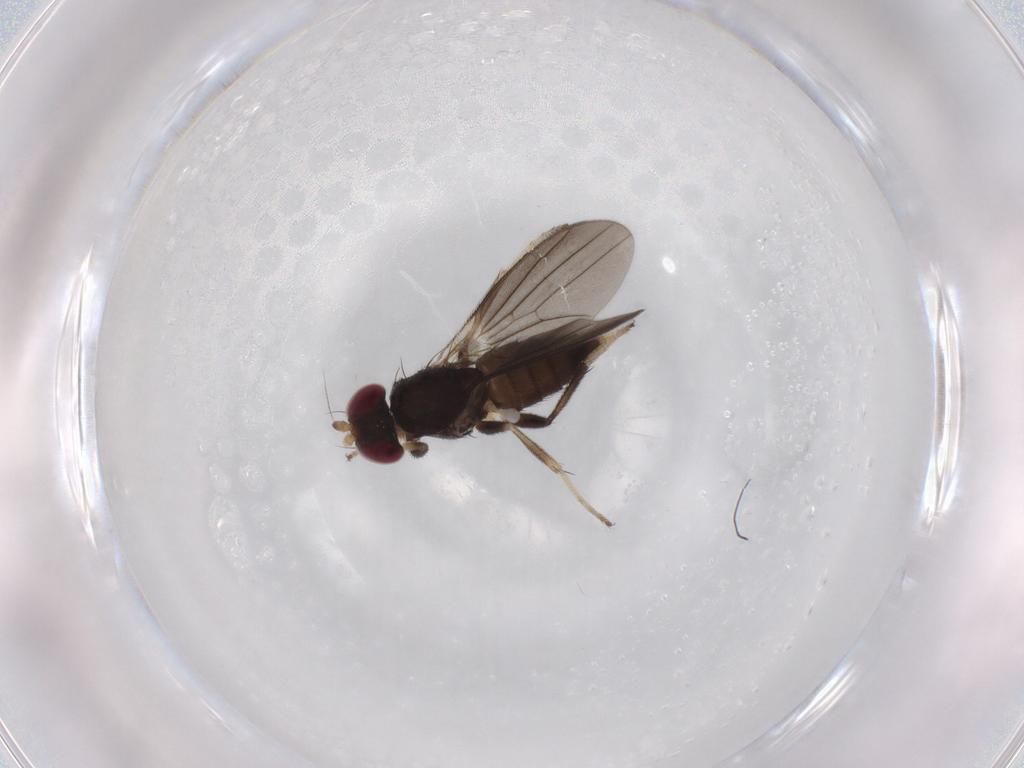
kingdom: Animalia
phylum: Arthropoda
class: Insecta
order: Diptera
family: Clusiidae
